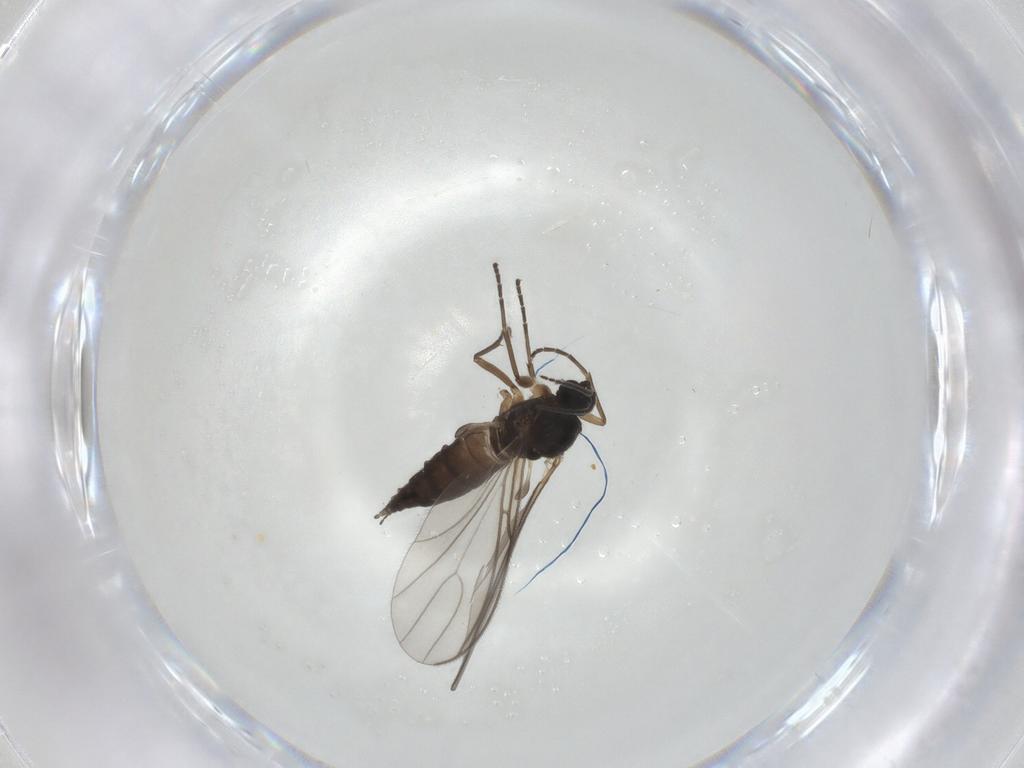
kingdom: Animalia
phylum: Arthropoda
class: Insecta
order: Diptera
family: Sciaridae
